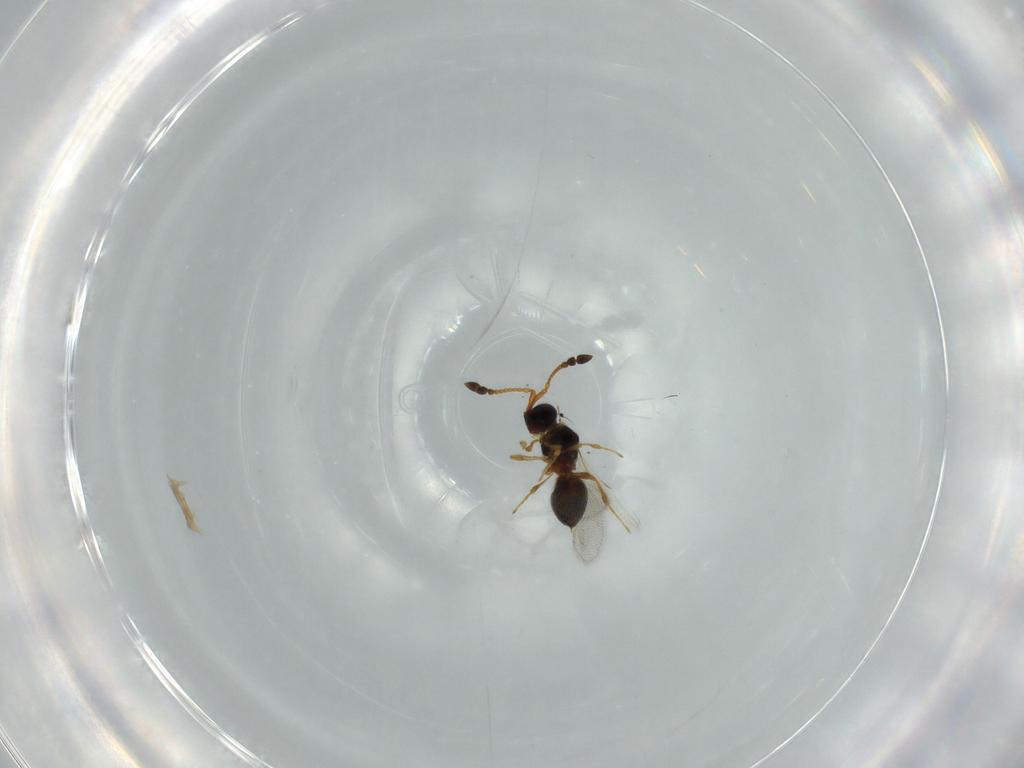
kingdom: Animalia
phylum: Arthropoda
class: Insecta
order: Hymenoptera
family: Diapriidae
